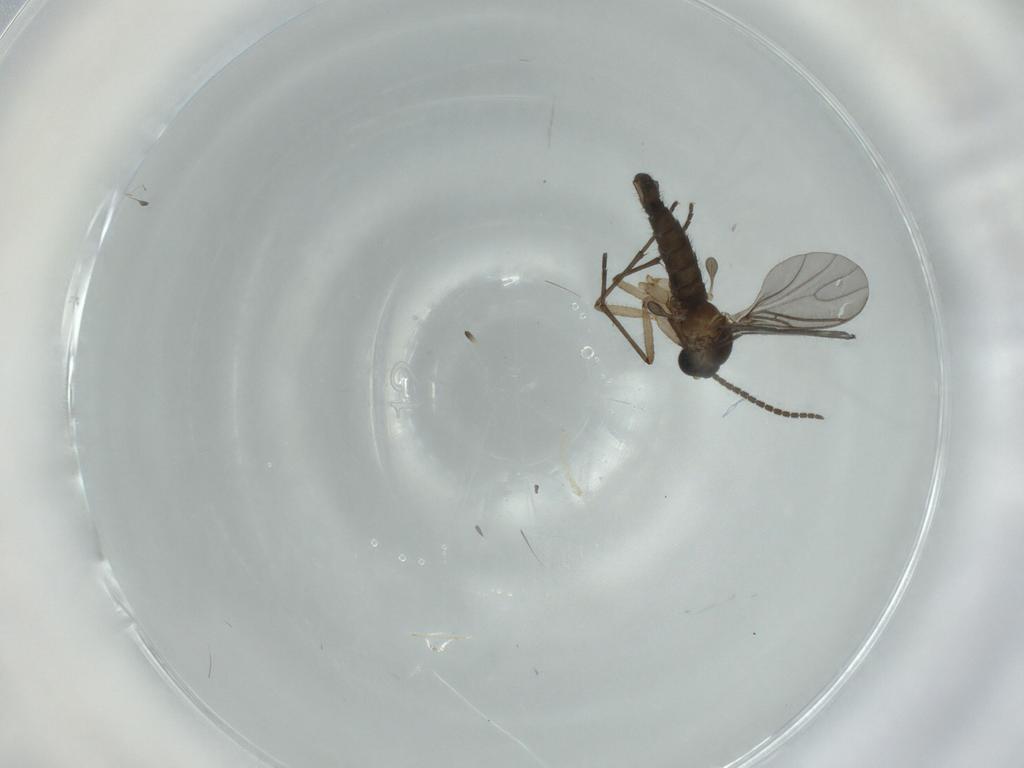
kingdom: Animalia
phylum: Arthropoda
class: Insecta
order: Diptera
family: Sciaridae
